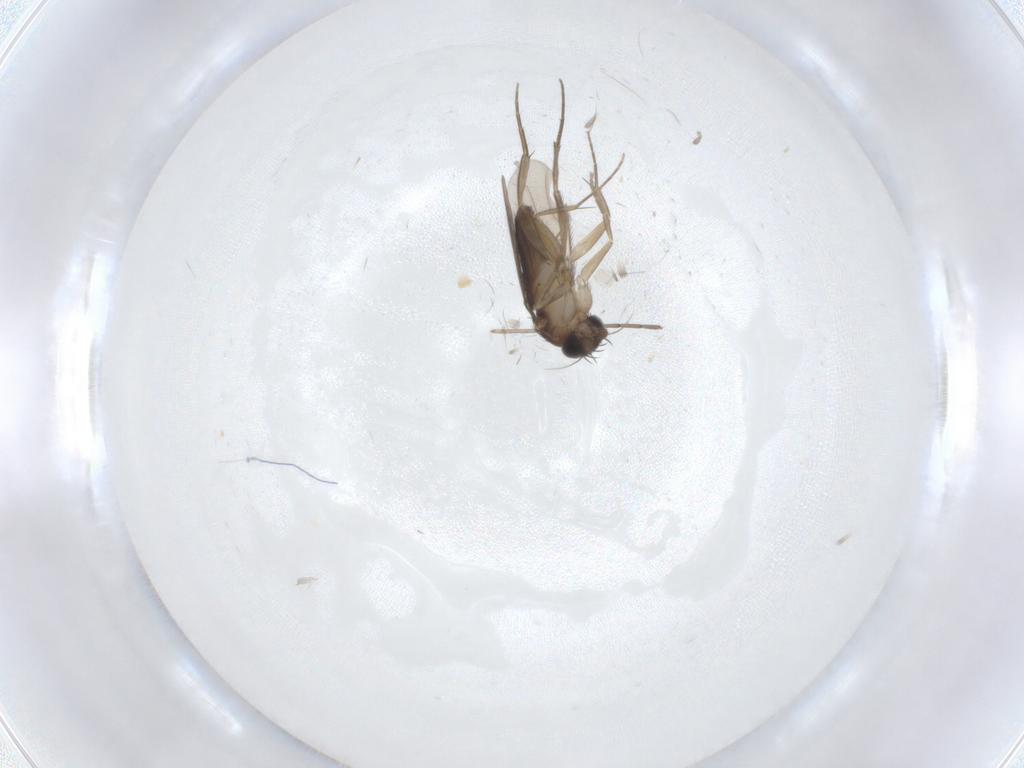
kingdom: Animalia
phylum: Arthropoda
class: Insecta
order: Diptera
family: Phoridae
